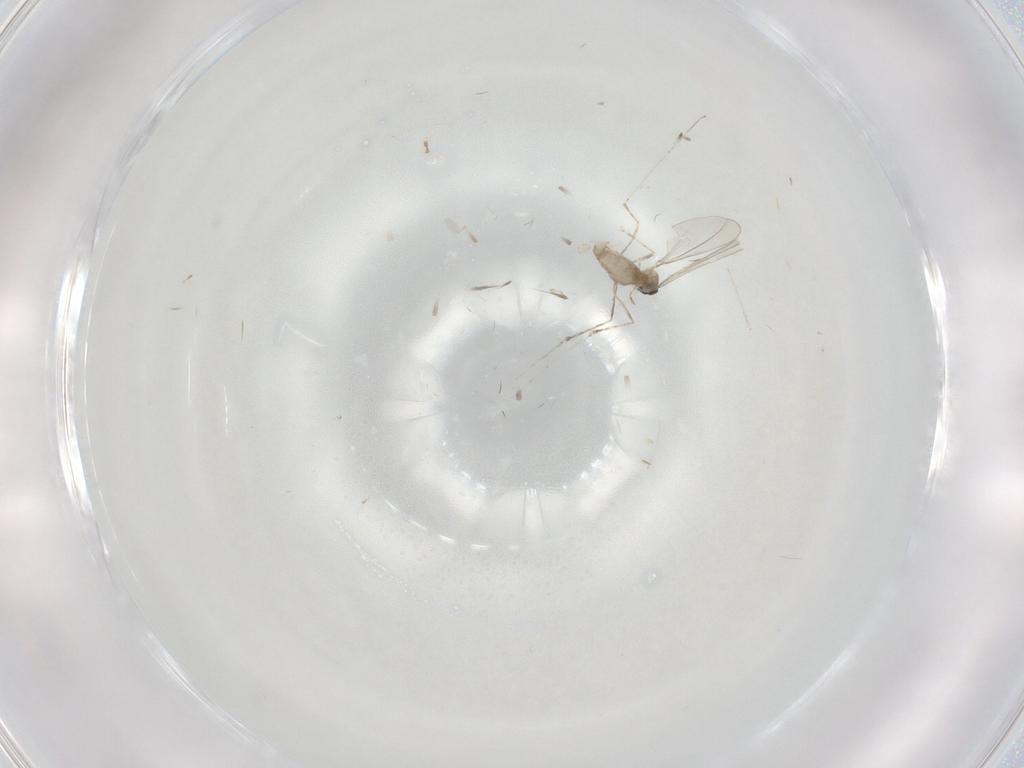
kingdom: Animalia
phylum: Arthropoda
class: Insecta
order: Diptera
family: Cecidomyiidae
